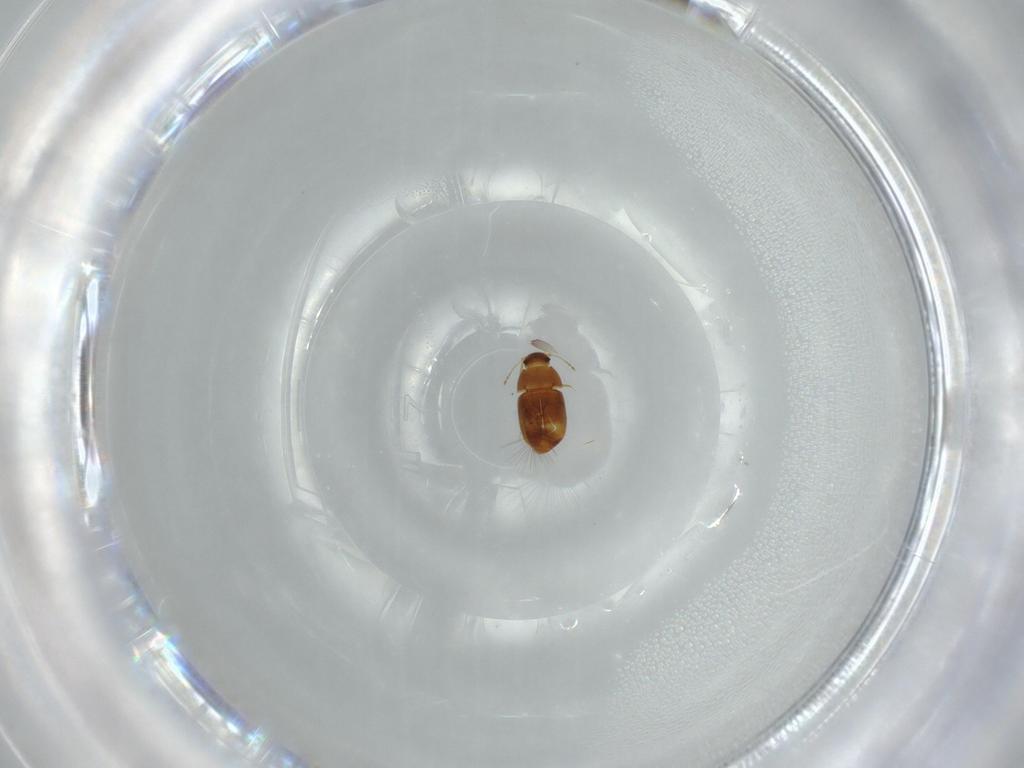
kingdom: Animalia
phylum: Arthropoda
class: Insecta
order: Coleoptera
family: Ptiliidae
